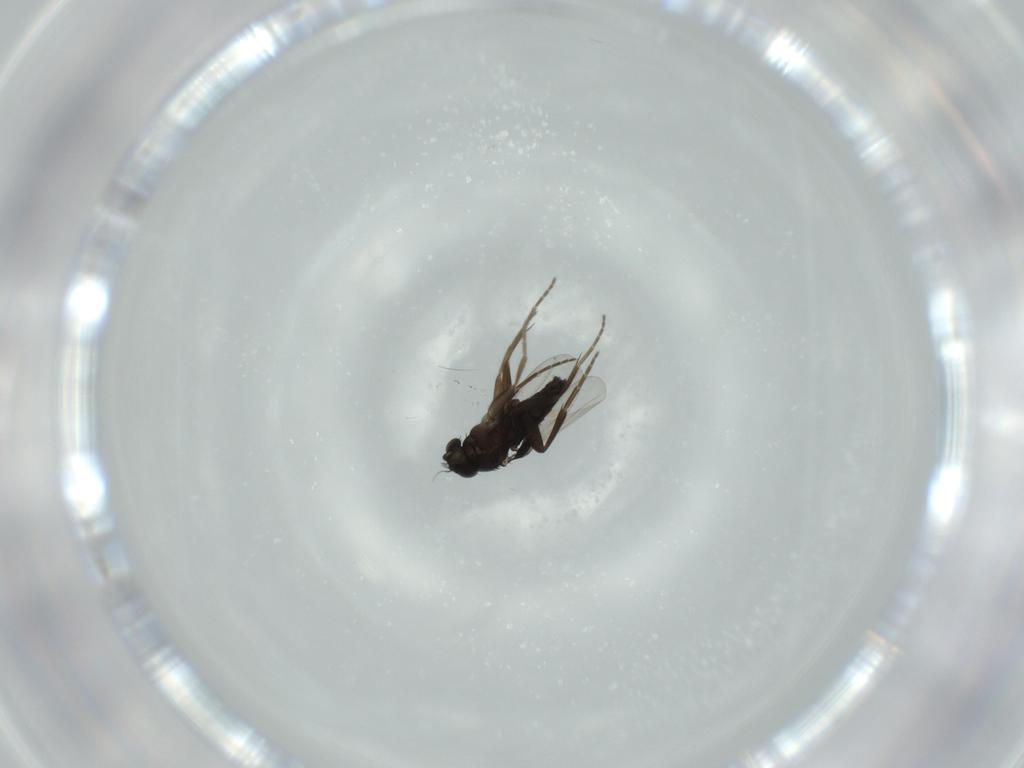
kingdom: Animalia
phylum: Arthropoda
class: Insecta
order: Diptera
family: Phoridae
